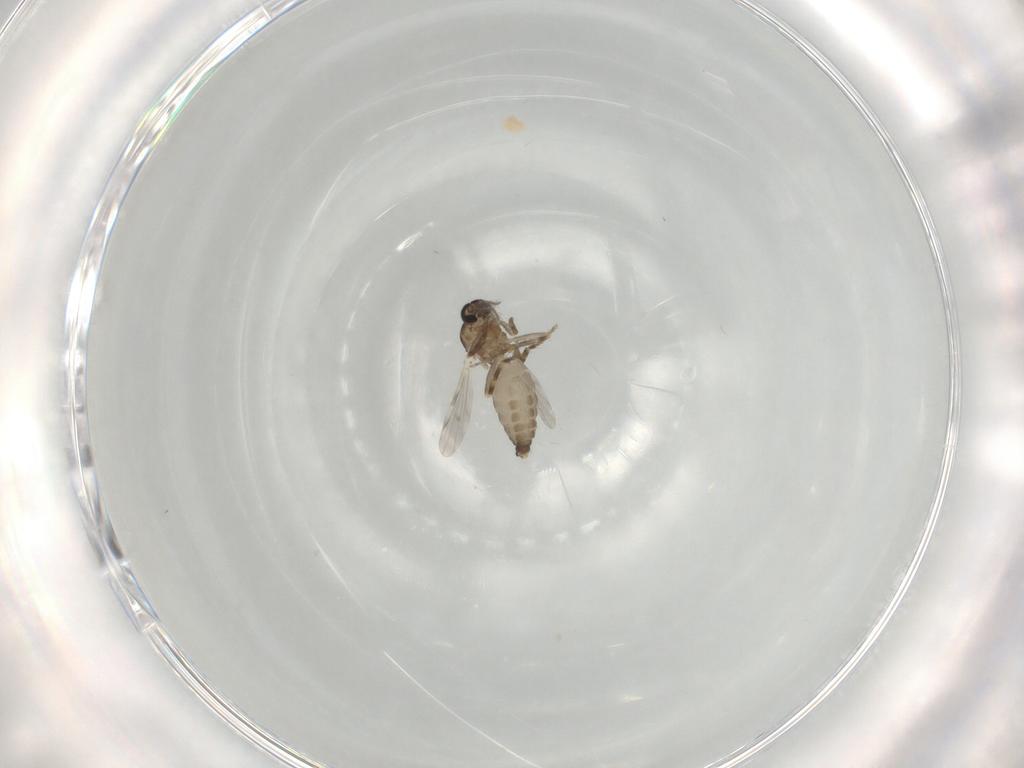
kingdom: Animalia
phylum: Arthropoda
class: Insecta
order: Diptera
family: Ceratopogonidae
